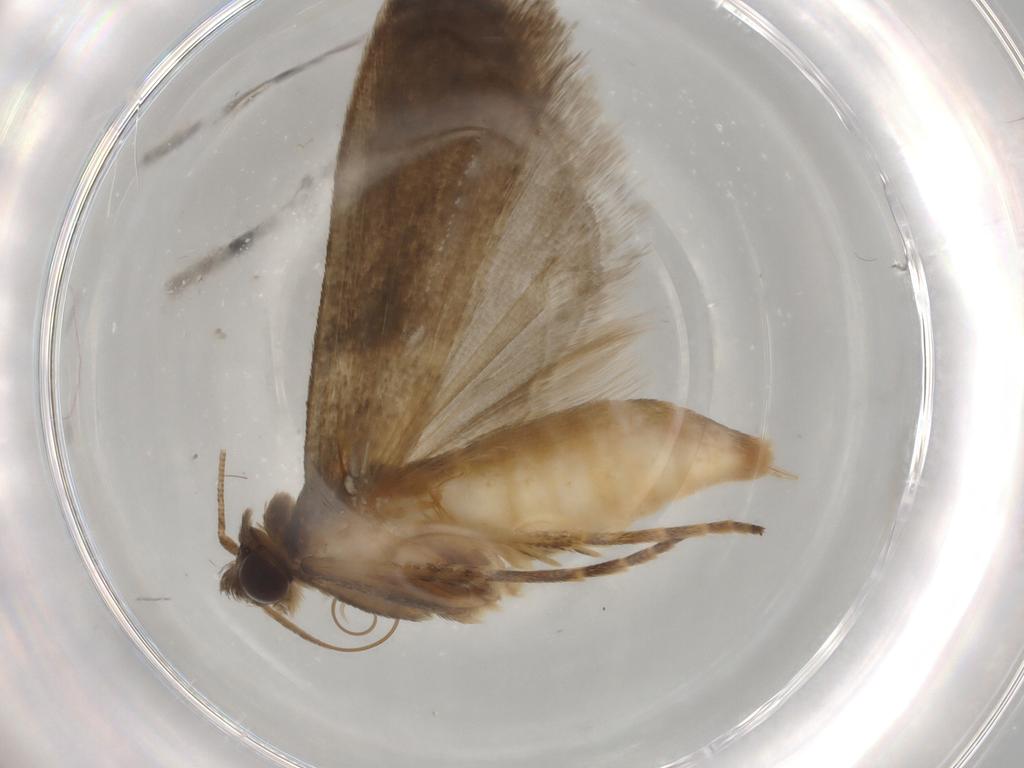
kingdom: Animalia
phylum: Arthropoda
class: Insecta
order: Lepidoptera
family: Noctuidae
